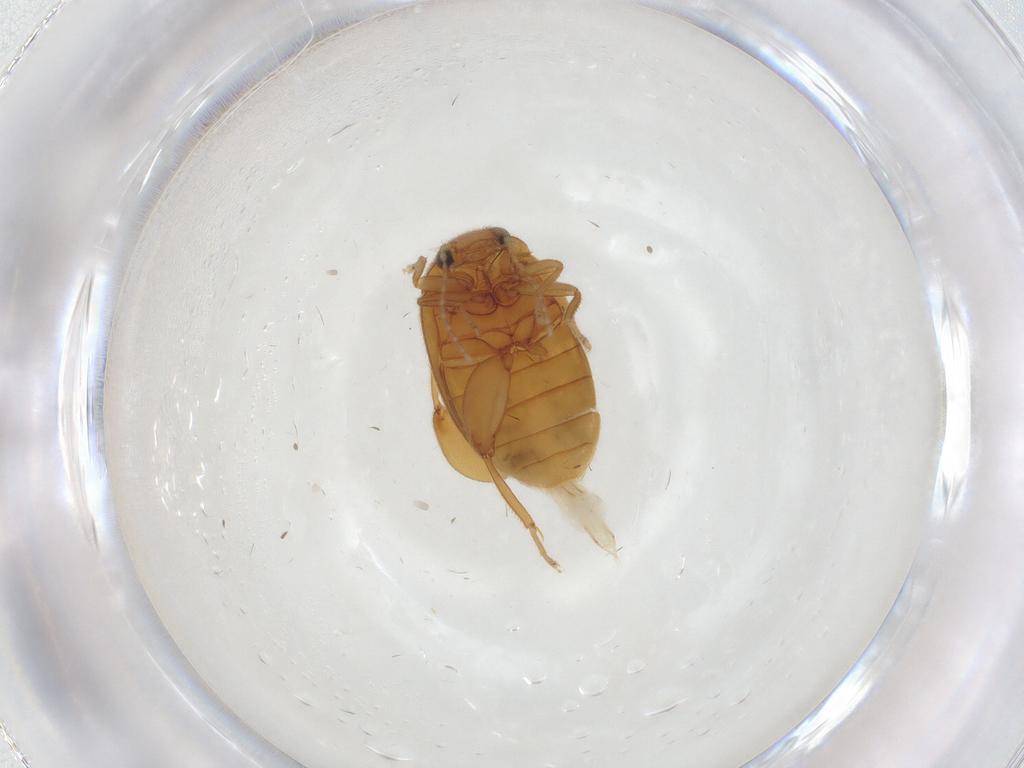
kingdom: Animalia
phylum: Arthropoda
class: Insecta
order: Coleoptera
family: Scirtidae
